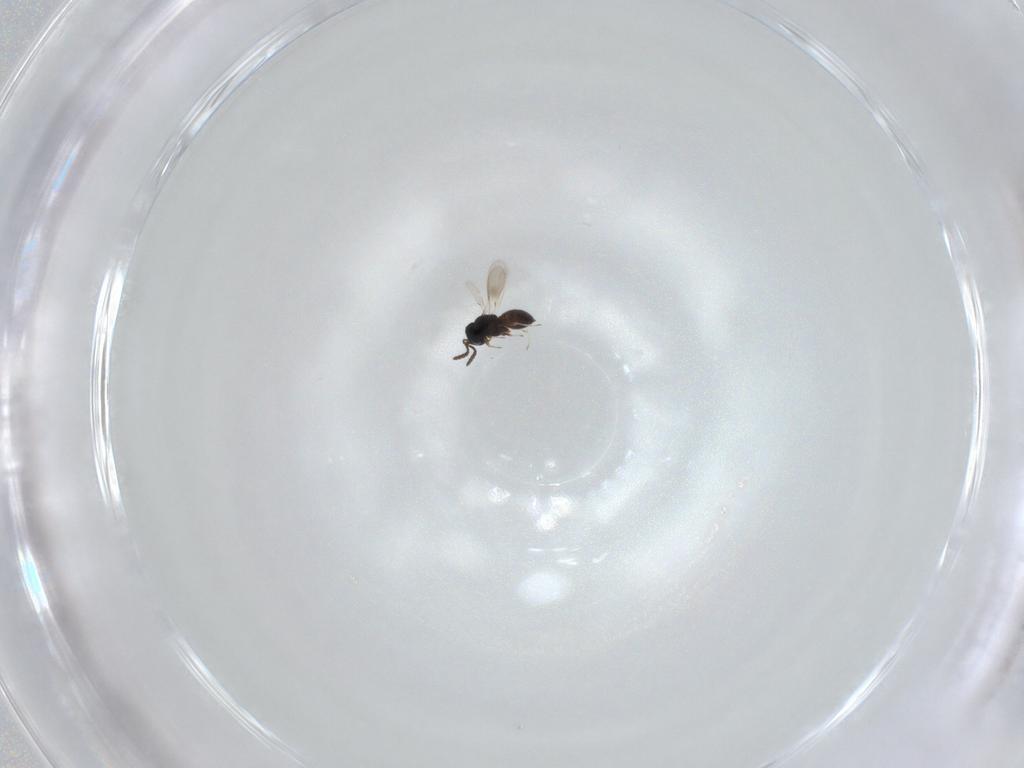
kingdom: Animalia
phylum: Arthropoda
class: Insecta
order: Hymenoptera
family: Scelionidae
